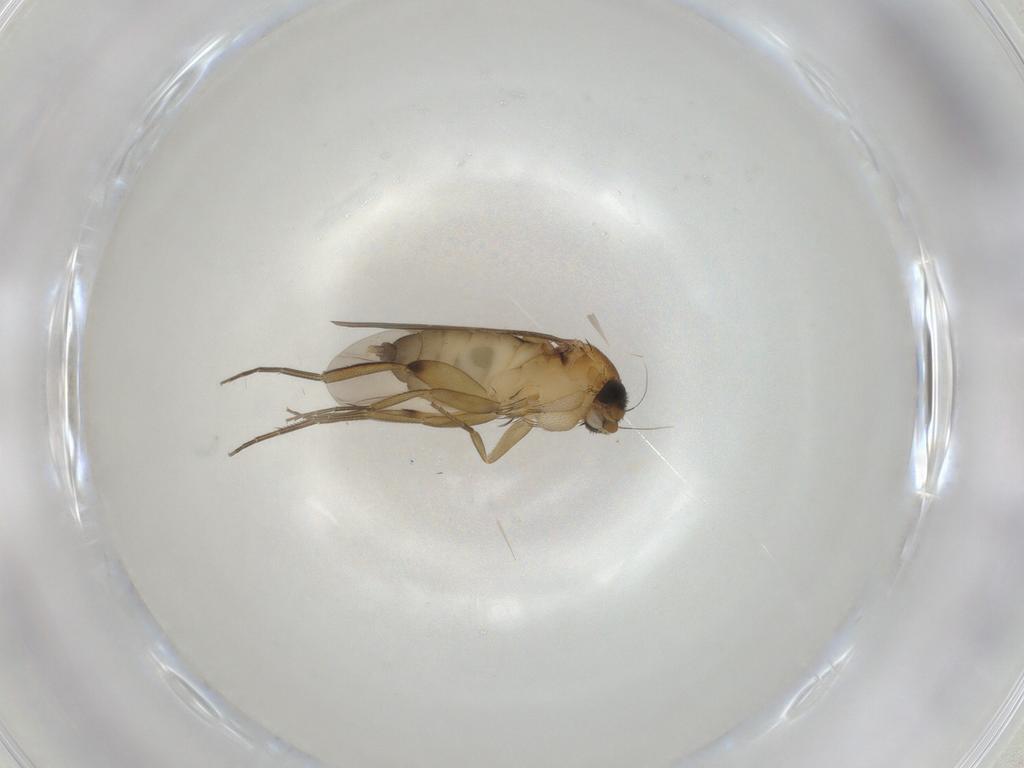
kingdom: Animalia
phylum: Arthropoda
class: Insecta
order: Diptera
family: Phoridae
